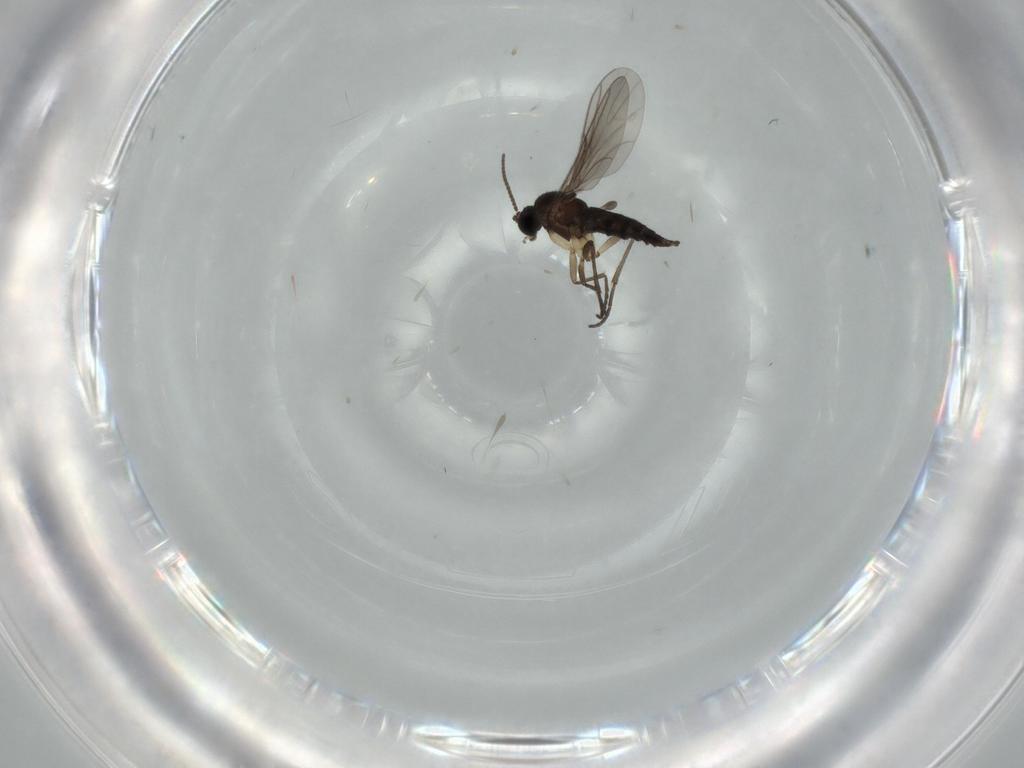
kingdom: Animalia
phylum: Arthropoda
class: Insecta
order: Diptera
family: Sciaridae
